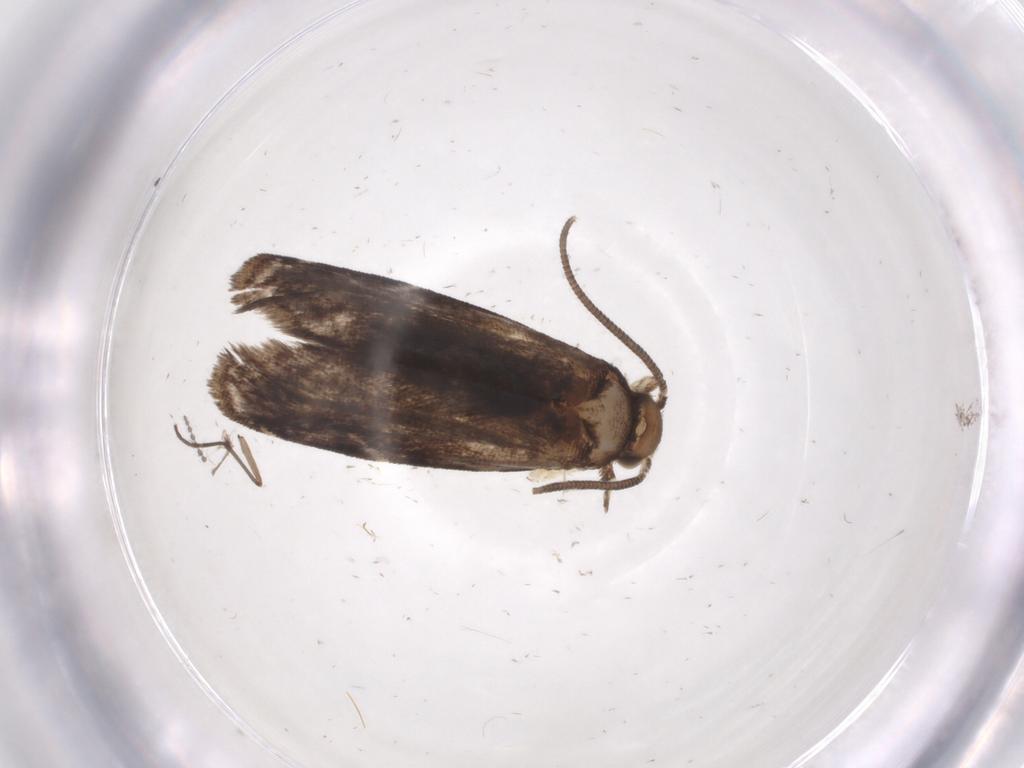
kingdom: Animalia
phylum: Arthropoda
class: Insecta
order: Lepidoptera
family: Dryadaulidae
